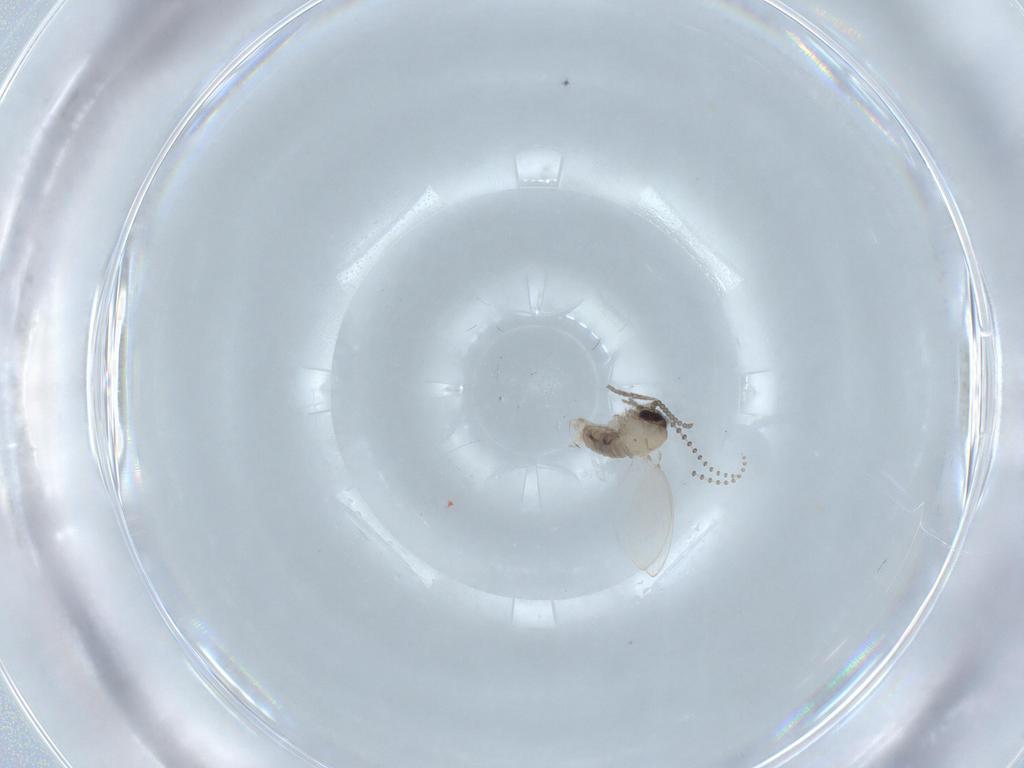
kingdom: Animalia
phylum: Arthropoda
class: Insecta
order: Diptera
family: Psychodidae
